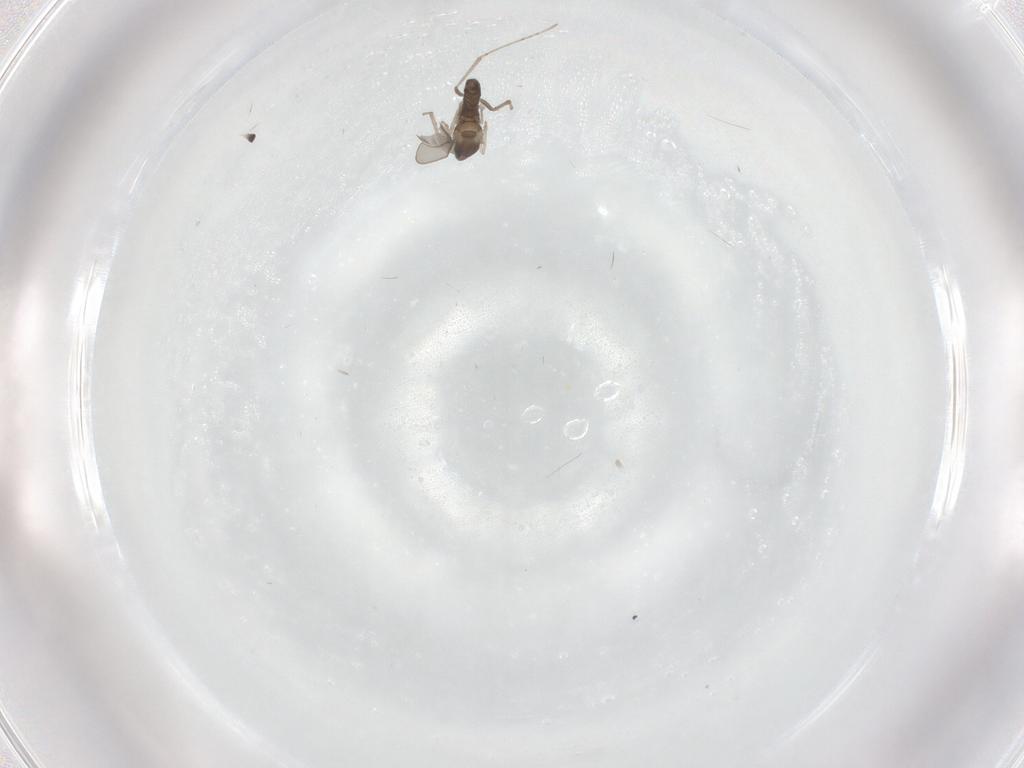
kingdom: Animalia
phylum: Arthropoda
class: Insecta
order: Diptera
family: Cecidomyiidae
